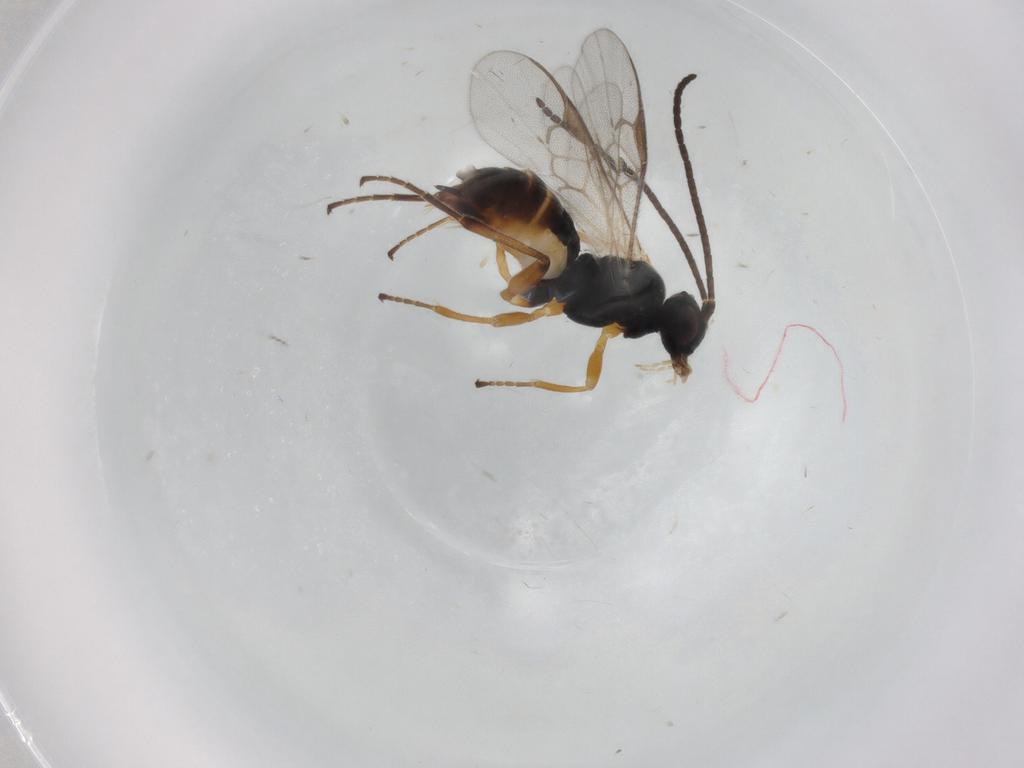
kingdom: Animalia
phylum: Arthropoda
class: Insecta
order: Hymenoptera
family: Braconidae
